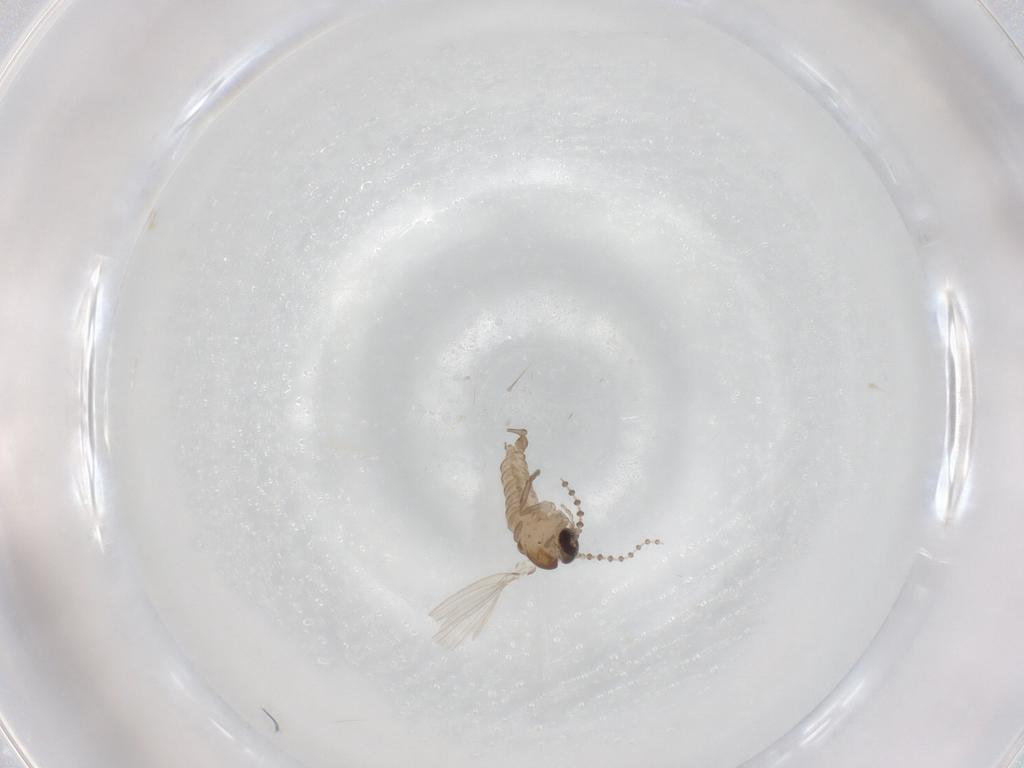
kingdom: Animalia
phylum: Arthropoda
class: Insecta
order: Diptera
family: Psychodidae
